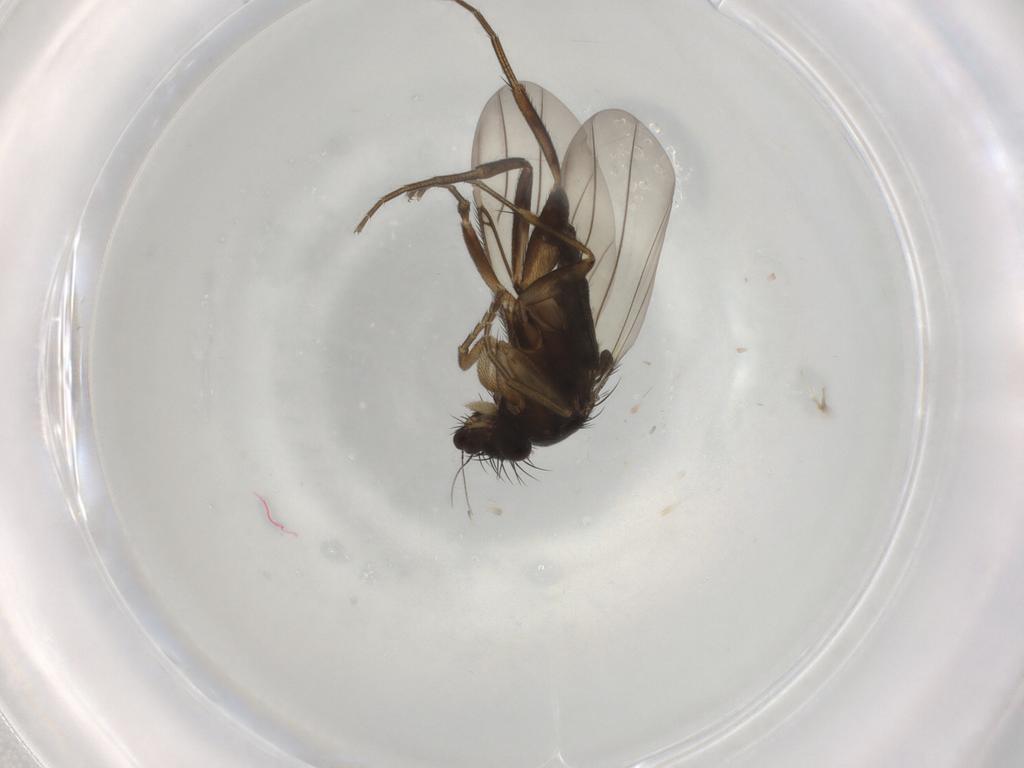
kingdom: Animalia
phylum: Arthropoda
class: Insecta
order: Diptera
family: Phoridae
